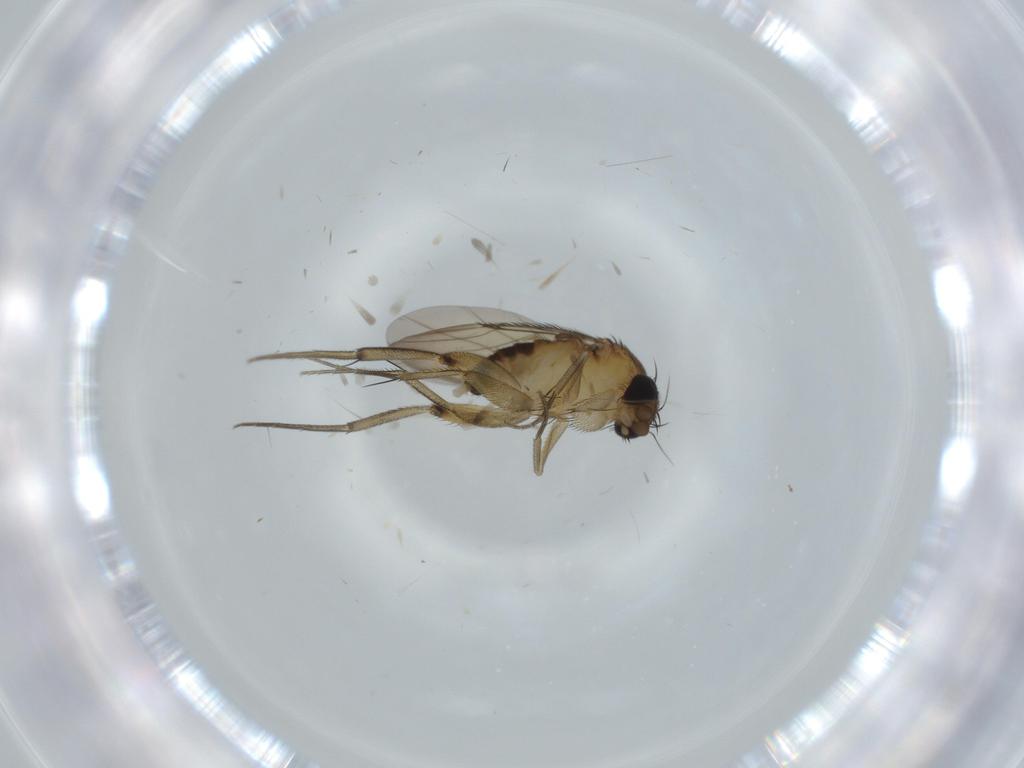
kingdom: Animalia
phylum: Arthropoda
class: Insecta
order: Diptera
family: Phoridae
